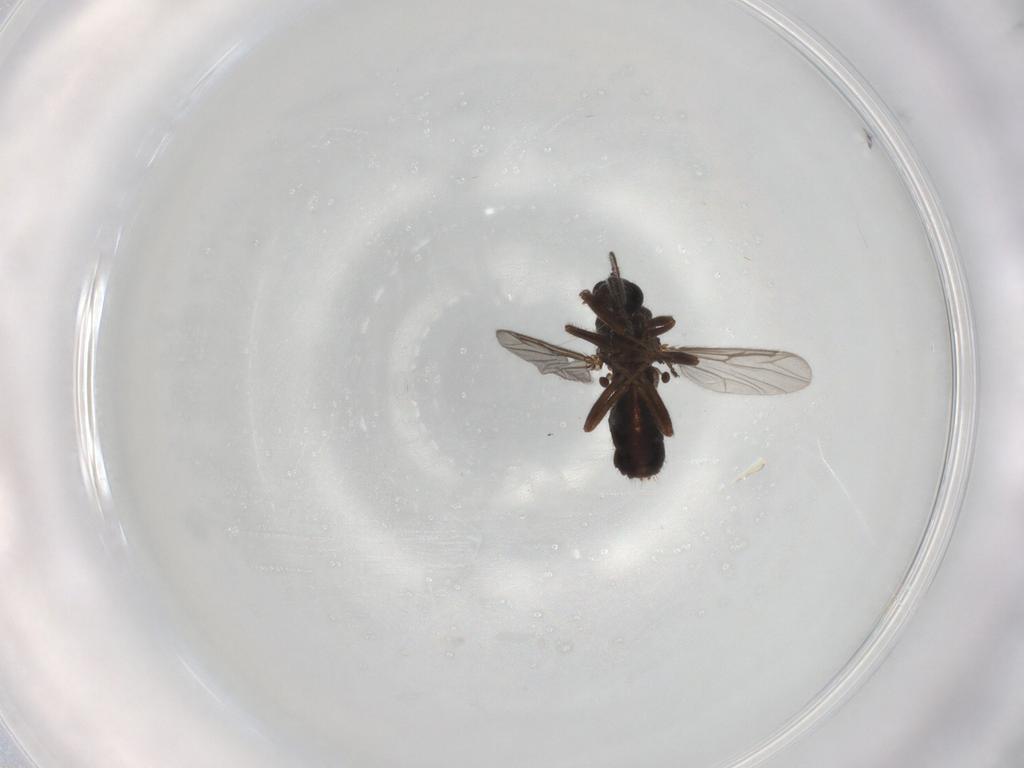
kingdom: Animalia
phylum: Arthropoda
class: Insecta
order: Diptera
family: Ceratopogonidae
